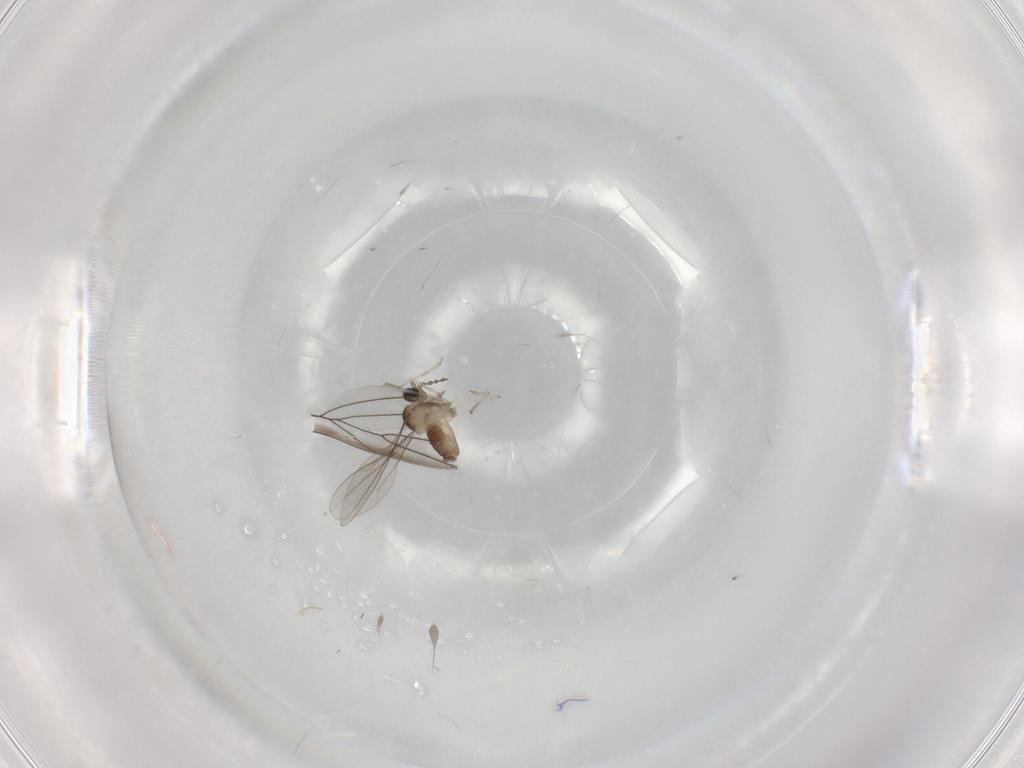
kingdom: Animalia
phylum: Arthropoda
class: Insecta
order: Diptera
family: Cecidomyiidae
